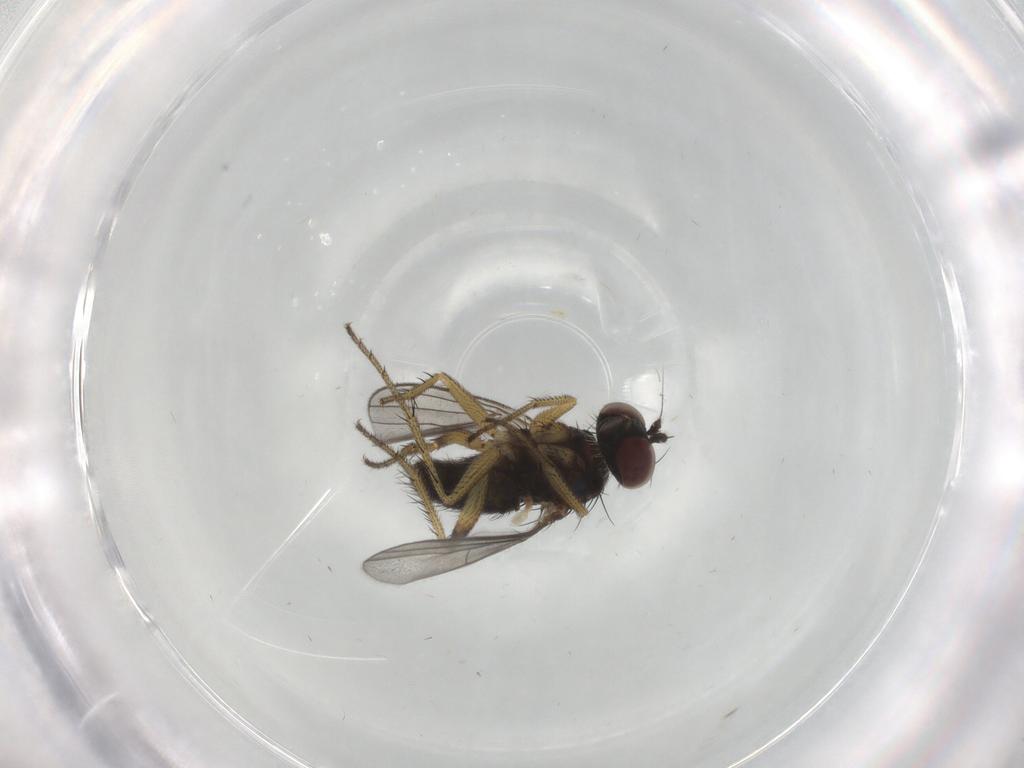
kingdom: Animalia
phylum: Arthropoda
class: Insecta
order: Diptera
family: Dolichopodidae
